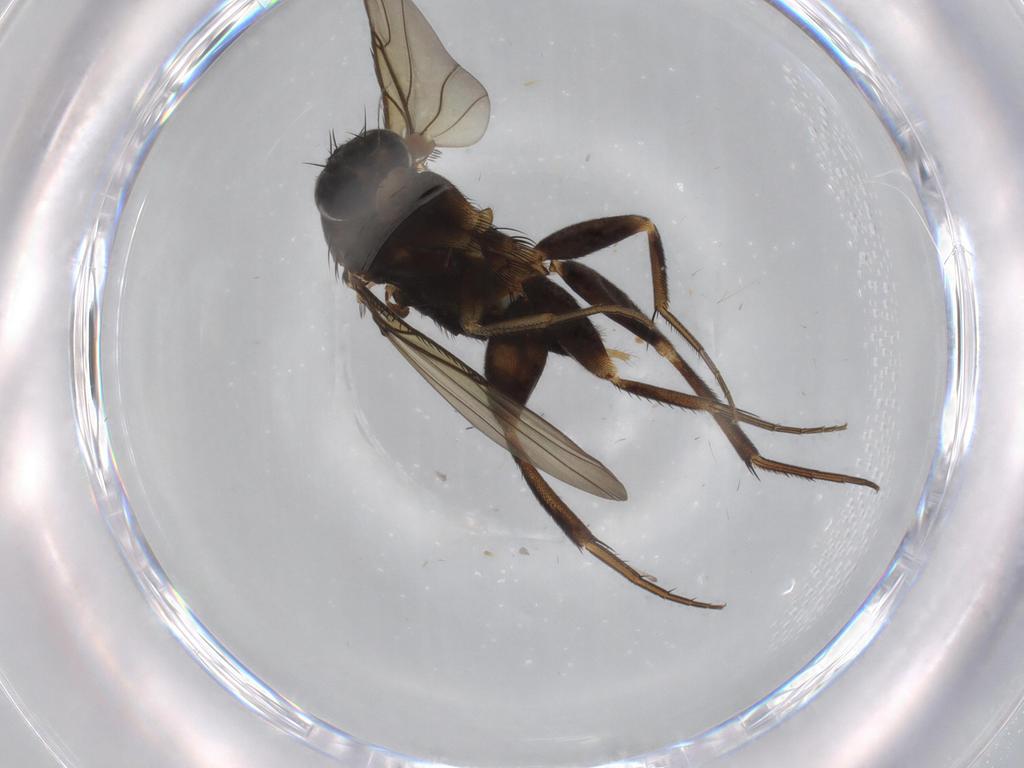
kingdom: Animalia
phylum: Arthropoda
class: Insecta
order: Diptera
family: Phoridae
